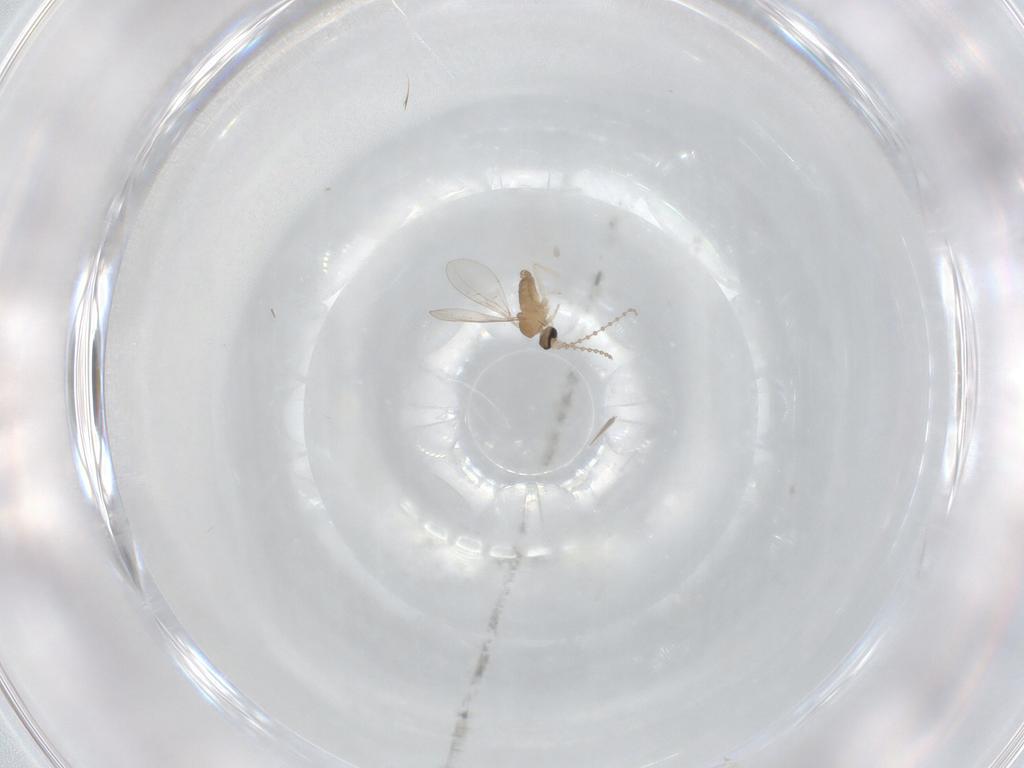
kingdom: Animalia
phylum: Arthropoda
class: Insecta
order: Diptera
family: Cecidomyiidae
